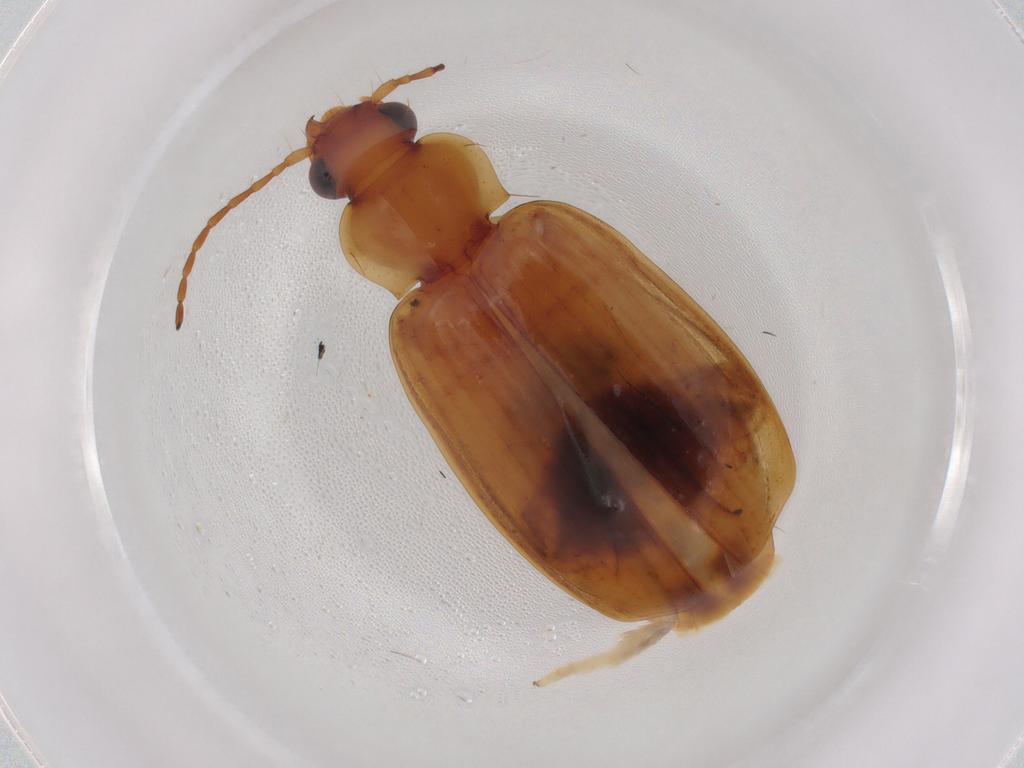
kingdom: Animalia
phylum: Arthropoda
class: Insecta
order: Coleoptera
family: Carabidae
